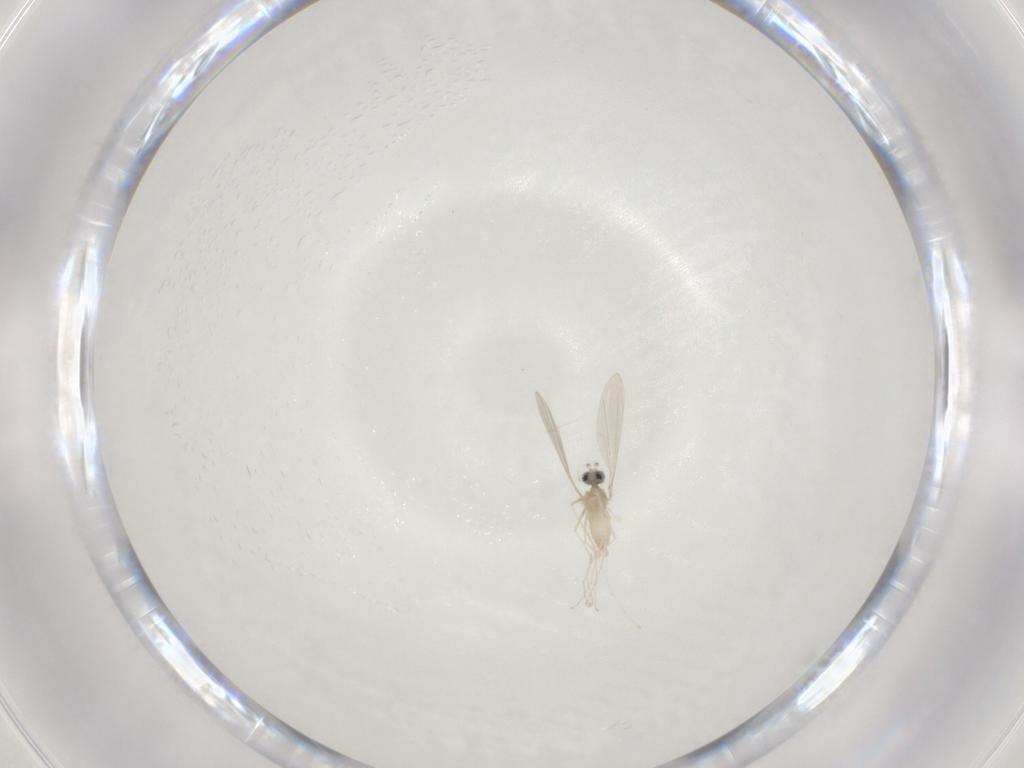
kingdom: Animalia
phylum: Arthropoda
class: Insecta
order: Diptera
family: Cecidomyiidae
